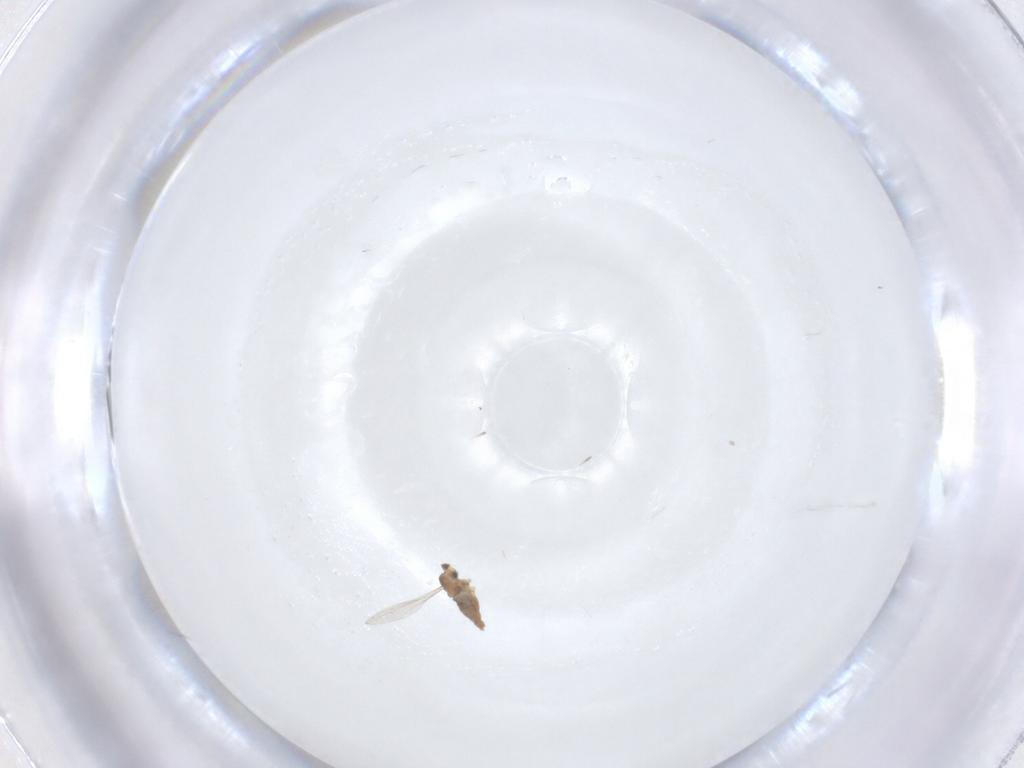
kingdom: Animalia
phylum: Arthropoda
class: Insecta
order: Diptera
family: Cecidomyiidae
